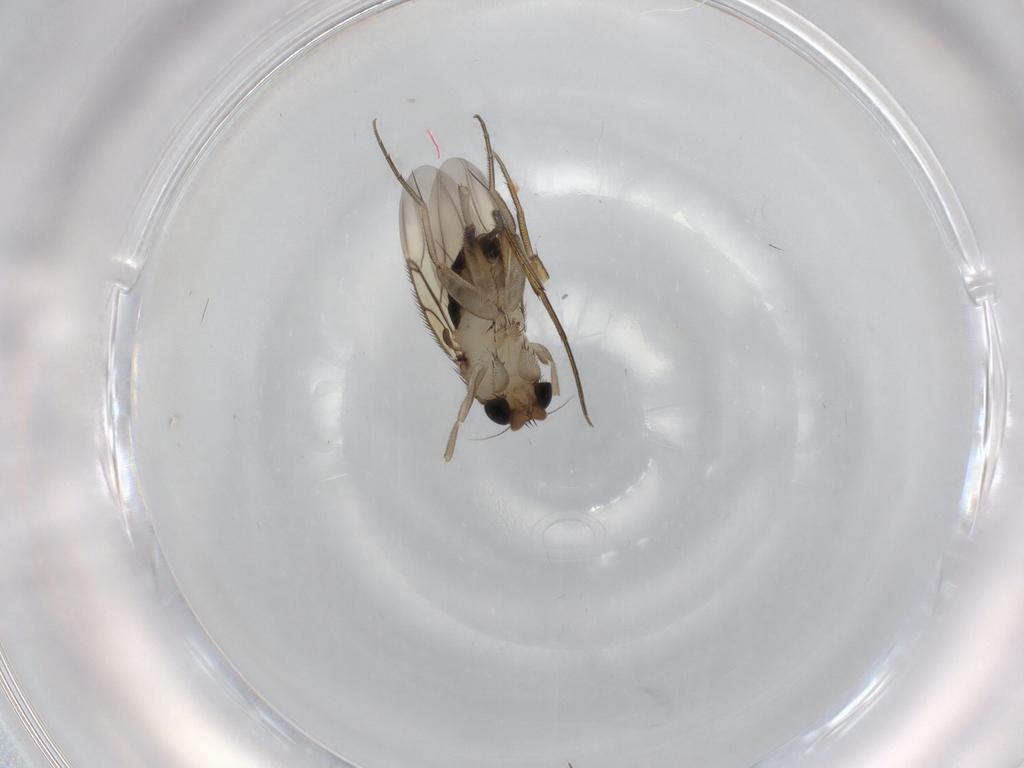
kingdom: Animalia
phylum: Arthropoda
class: Insecta
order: Diptera
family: Phoridae
